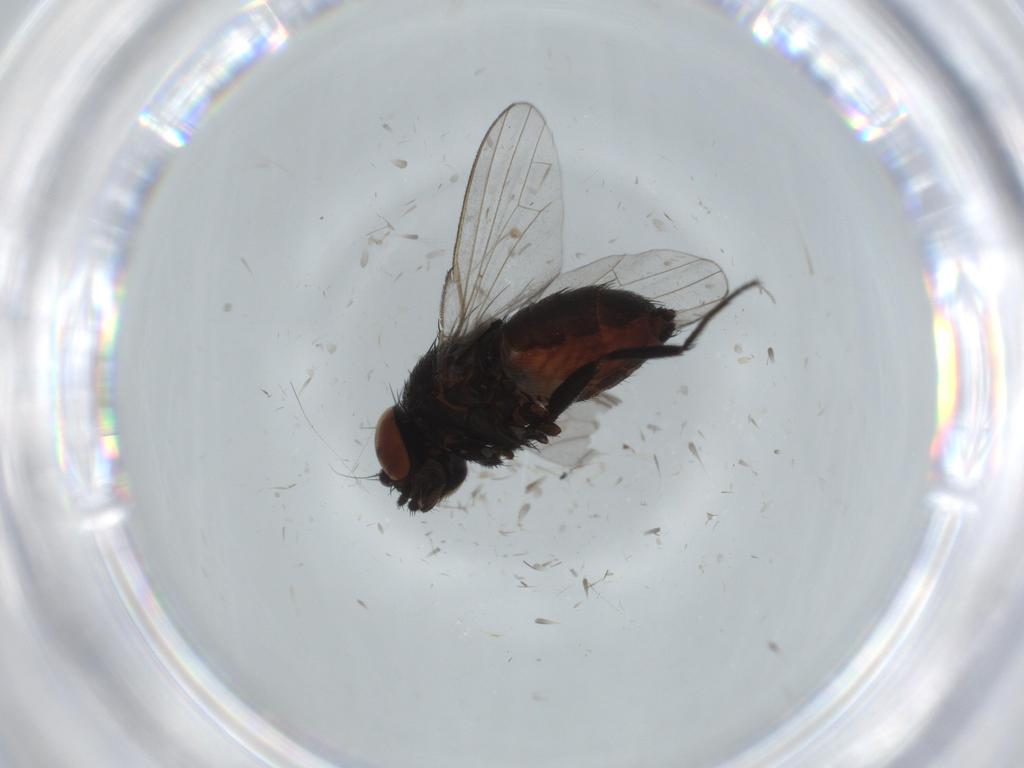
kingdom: Animalia
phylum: Arthropoda
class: Insecta
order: Diptera
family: Milichiidae
